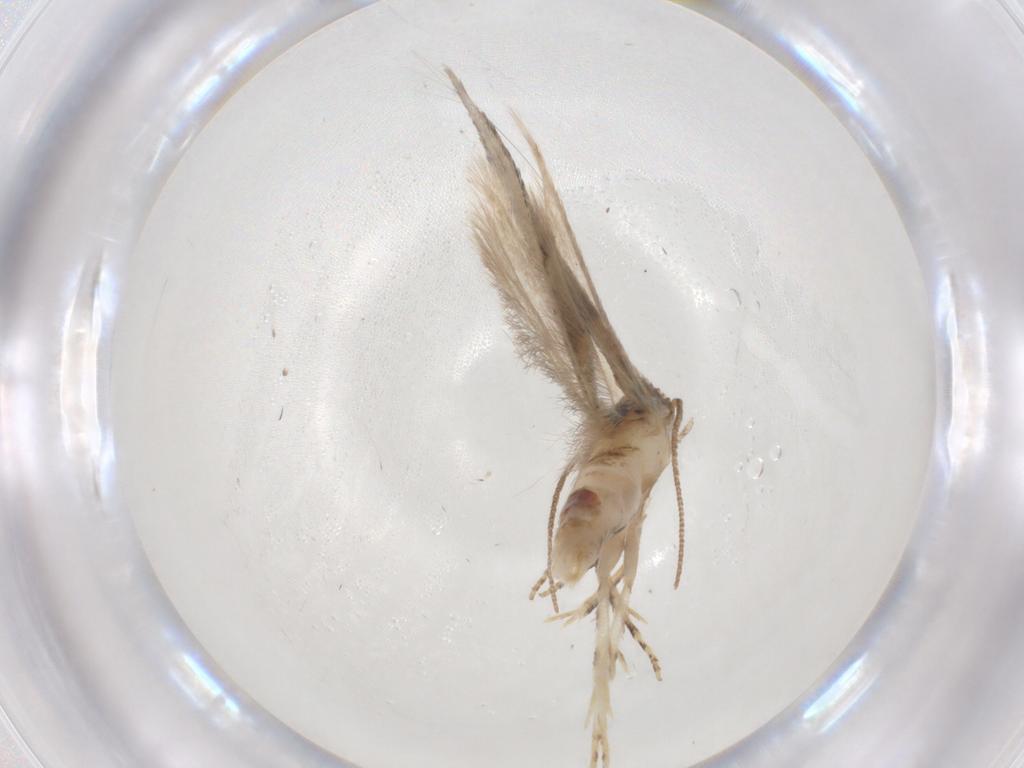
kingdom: Animalia
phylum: Arthropoda
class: Insecta
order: Lepidoptera
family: Gelechiidae
